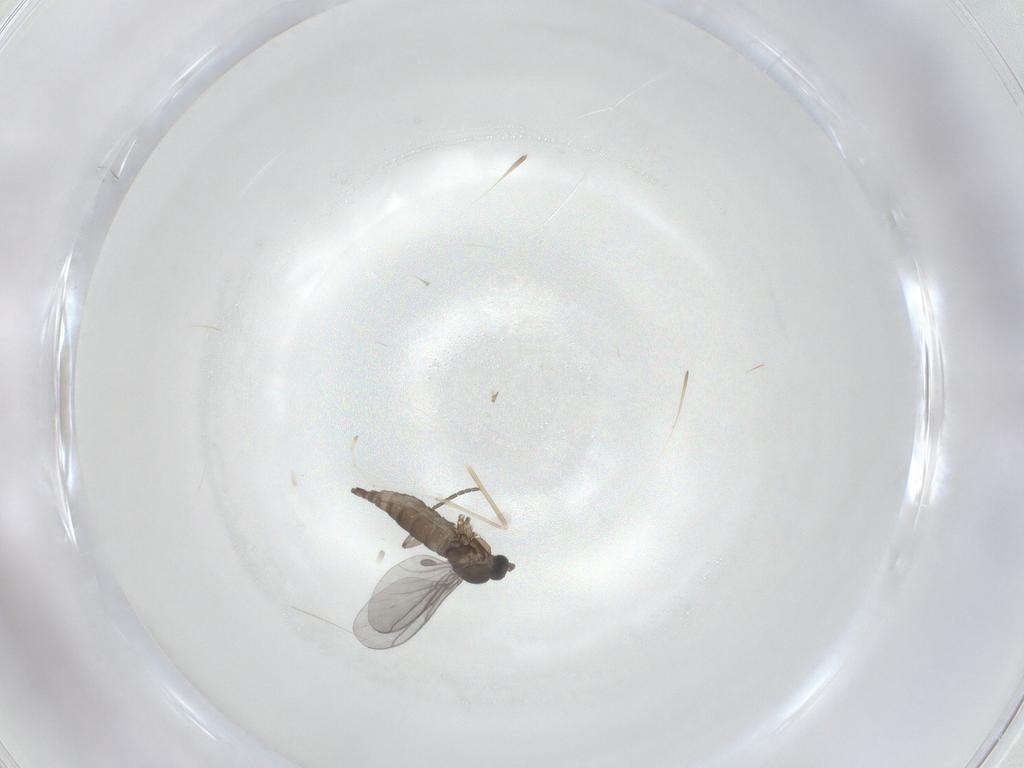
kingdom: Animalia
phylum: Arthropoda
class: Insecta
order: Diptera
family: Cecidomyiidae
